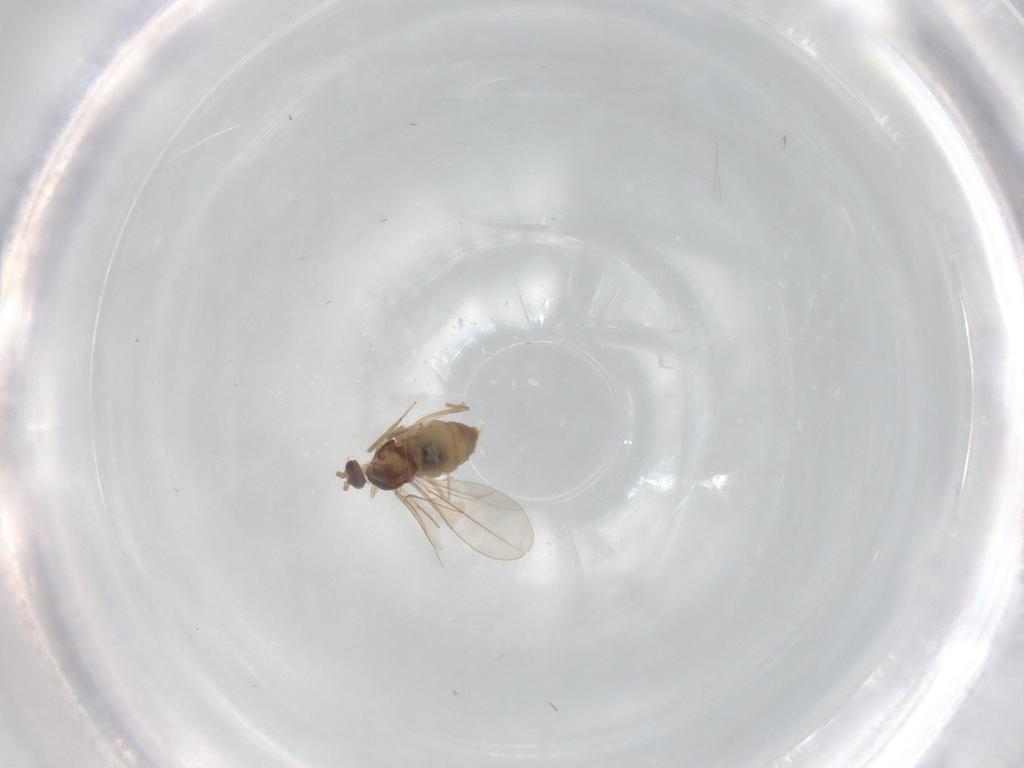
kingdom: Animalia
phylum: Arthropoda
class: Insecta
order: Diptera
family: Cecidomyiidae
